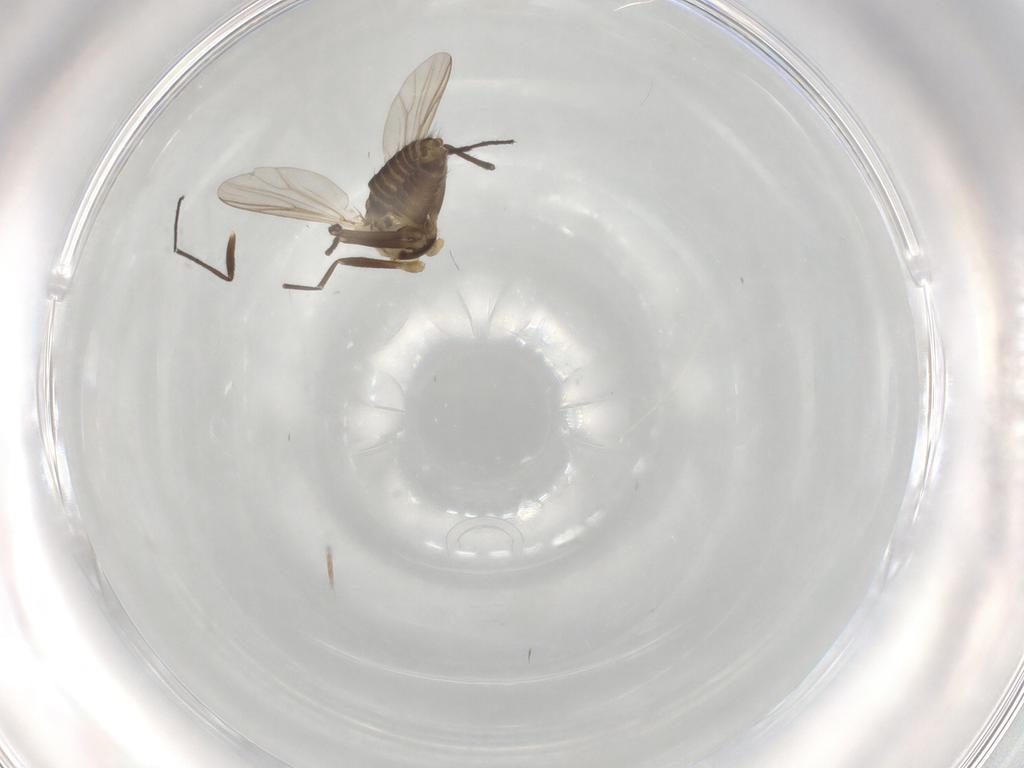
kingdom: Animalia
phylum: Arthropoda
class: Insecta
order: Diptera
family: Chironomidae
